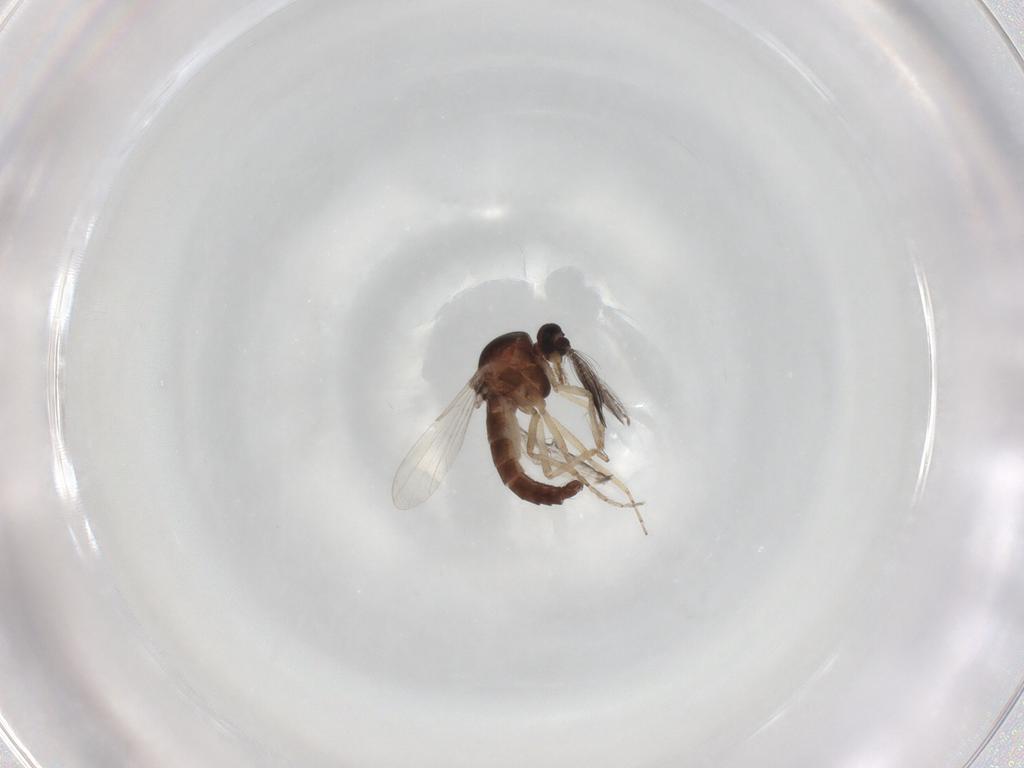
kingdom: Animalia
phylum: Arthropoda
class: Insecta
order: Diptera
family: Ceratopogonidae
